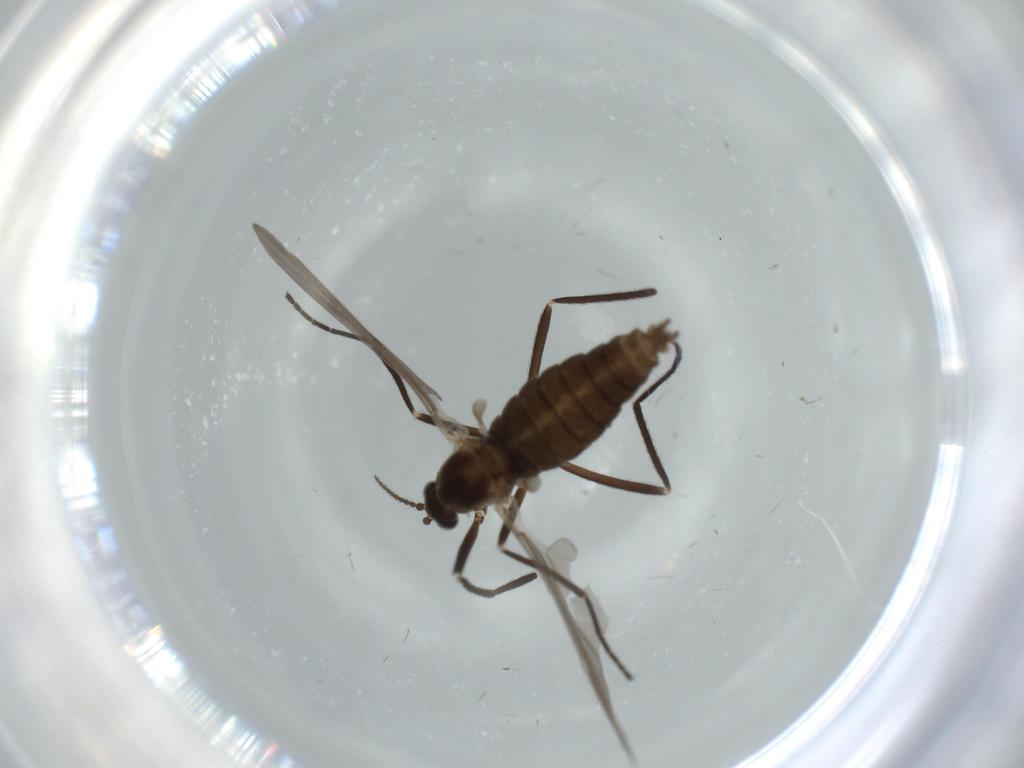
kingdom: Animalia
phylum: Arthropoda
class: Insecta
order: Diptera
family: Cecidomyiidae
